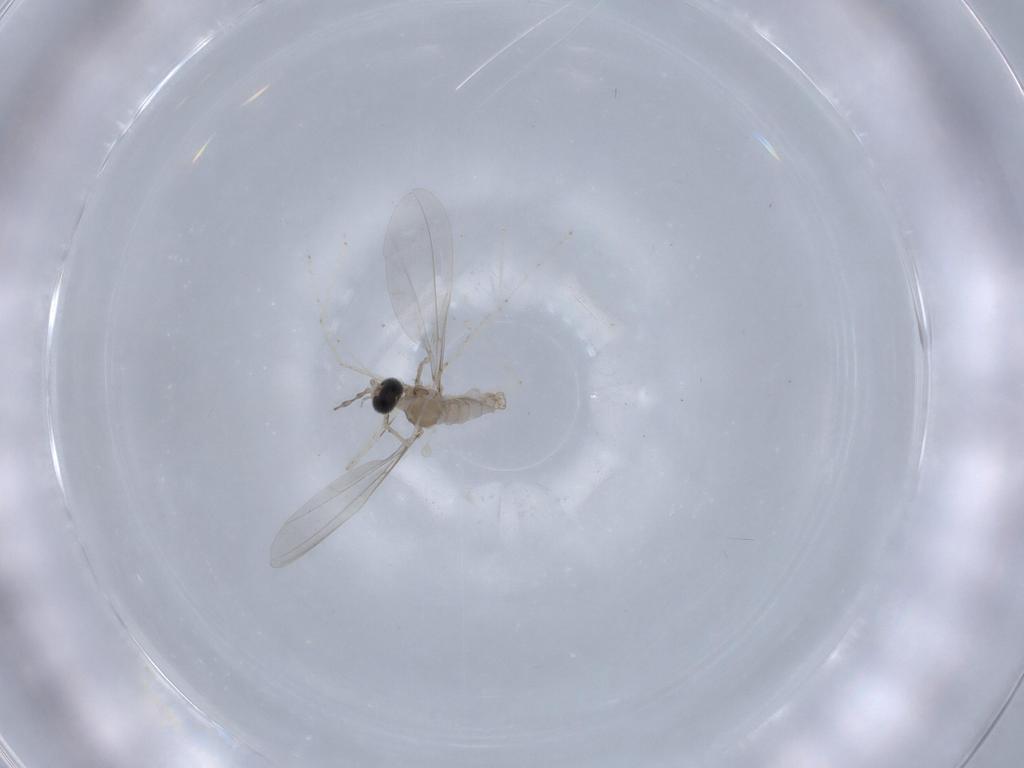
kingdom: Animalia
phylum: Arthropoda
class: Insecta
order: Diptera
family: Cecidomyiidae
